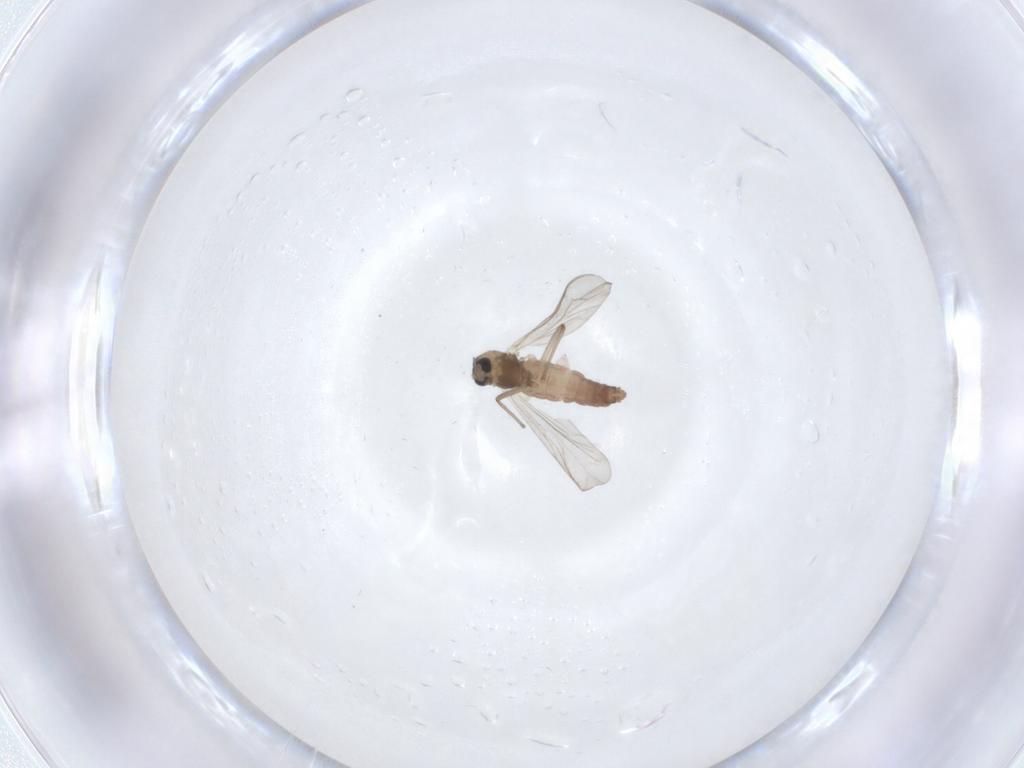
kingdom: Animalia
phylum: Arthropoda
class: Insecta
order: Diptera
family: Chironomidae
